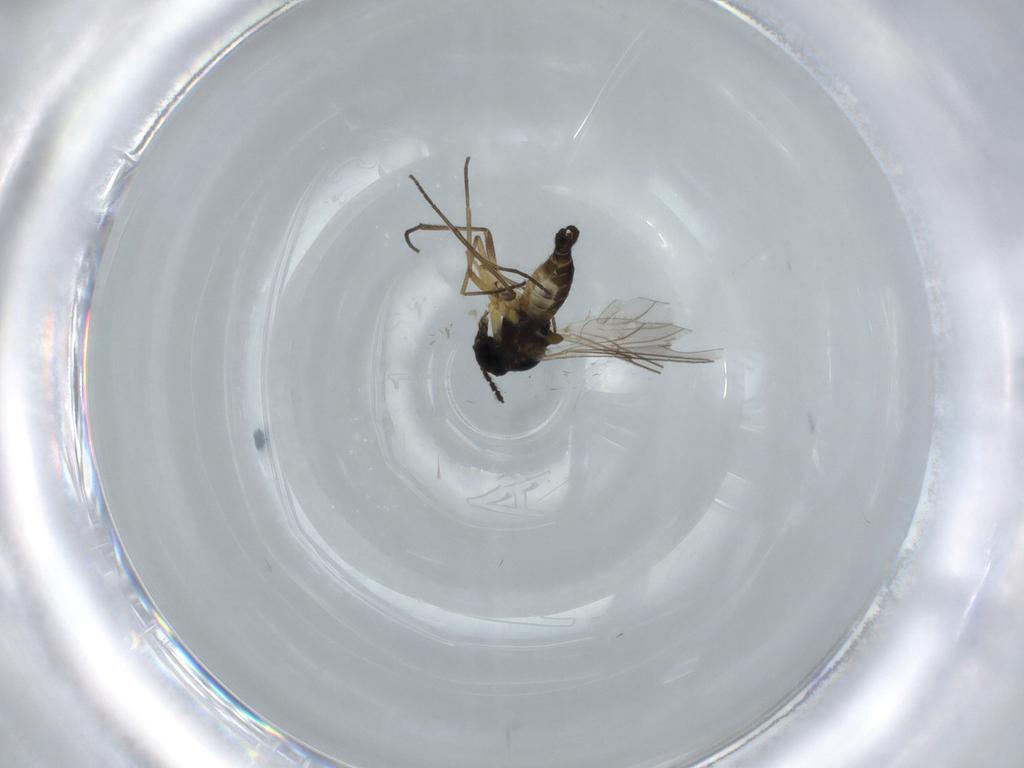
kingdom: Animalia
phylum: Arthropoda
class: Insecta
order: Diptera
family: Sciaridae
